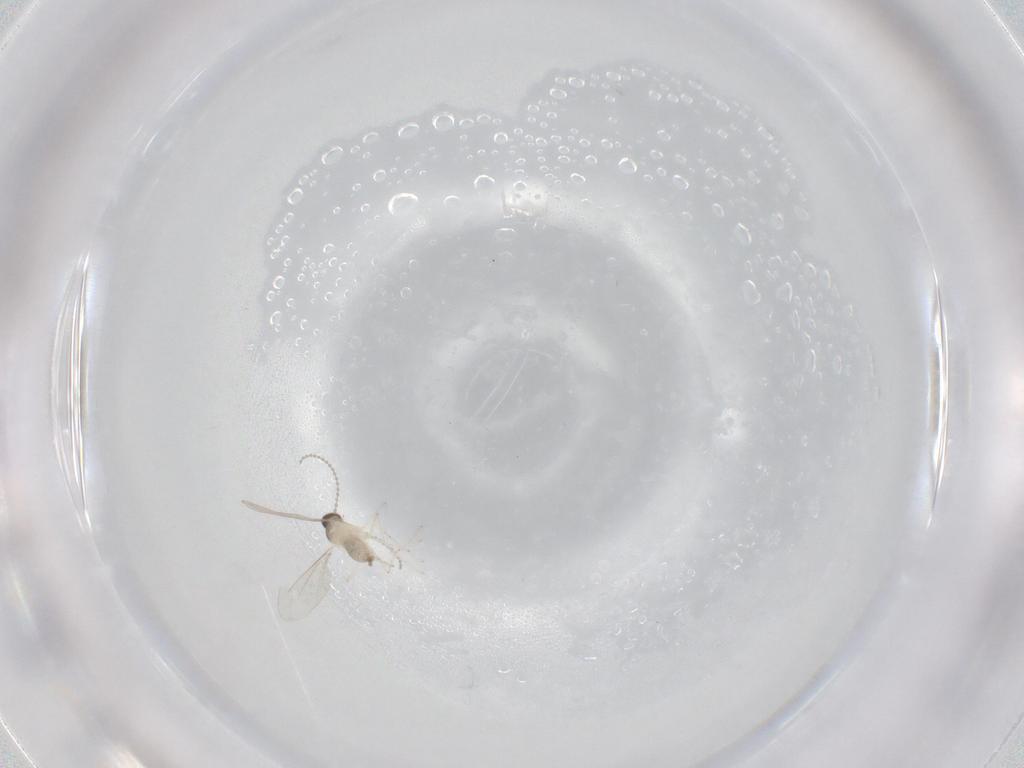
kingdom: Animalia
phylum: Arthropoda
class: Insecta
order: Diptera
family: Cecidomyiidae
